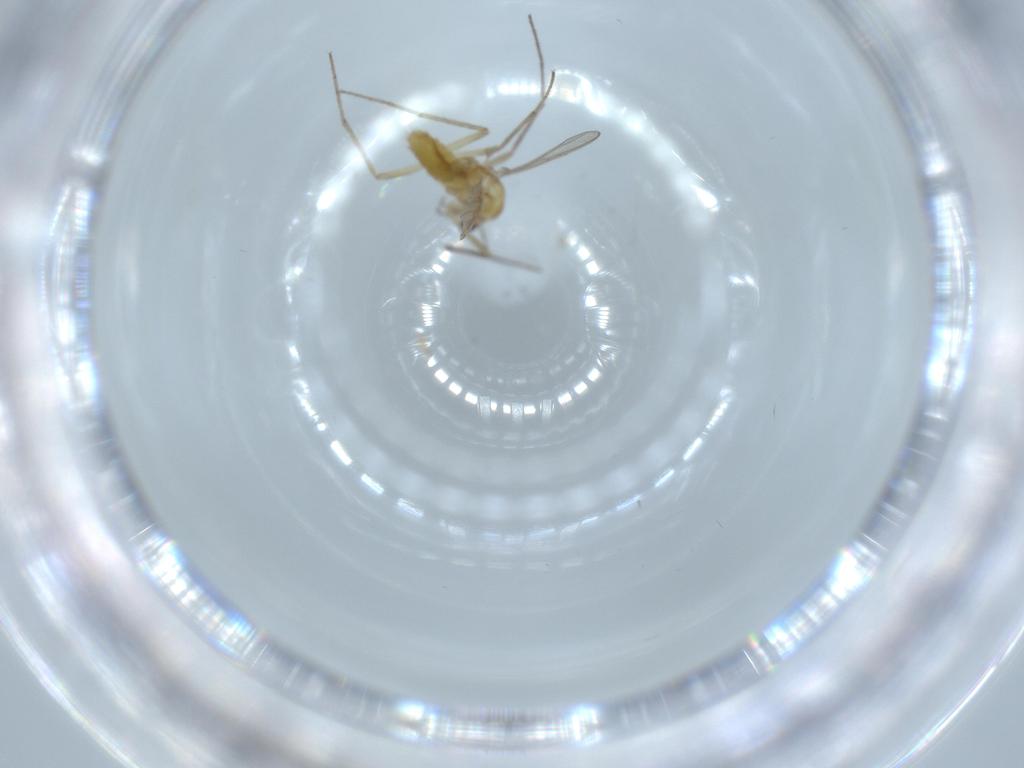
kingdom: Animalia
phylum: Arthropoda
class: Insecta
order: Diptera
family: Chironomidae
